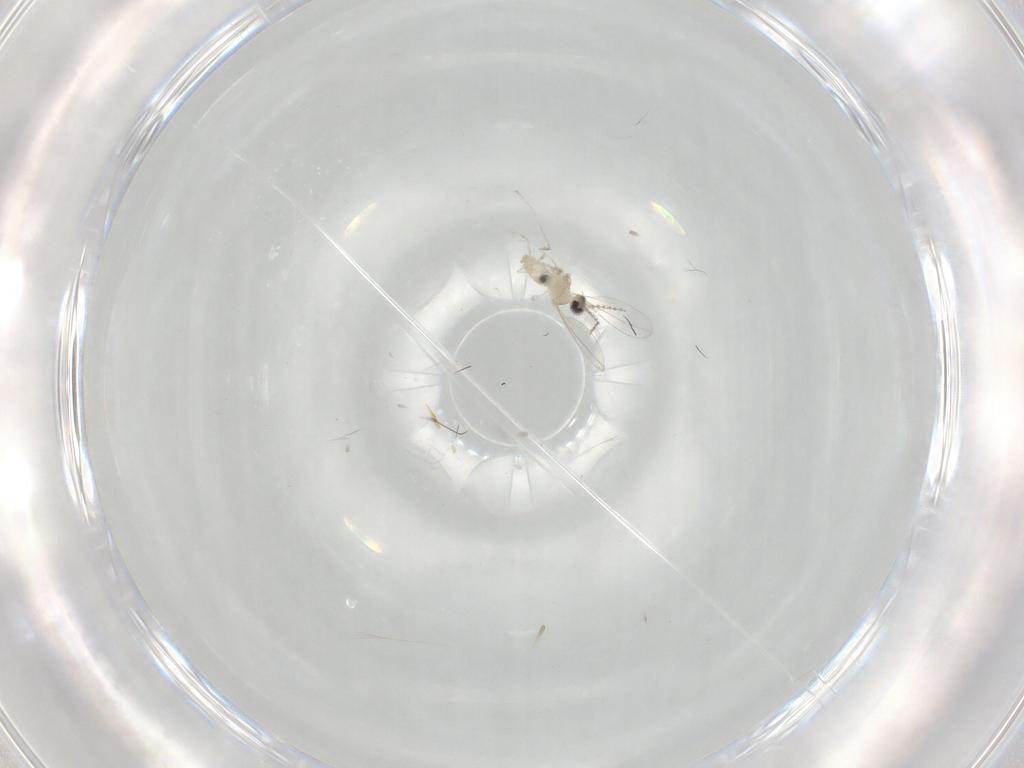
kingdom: Animalia
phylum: Arthropoda
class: Insecta
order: Diptera
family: Cecidomyiidae
